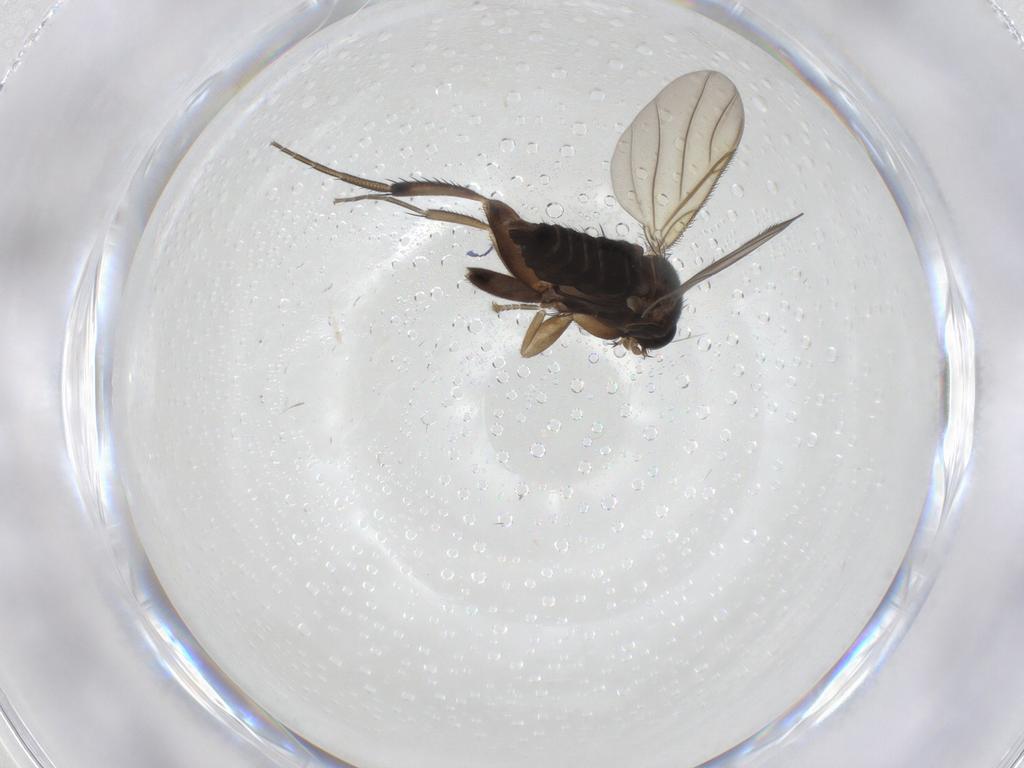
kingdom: Animalia
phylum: Arthropoda
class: Insecta
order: Diptera
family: Phoridae
